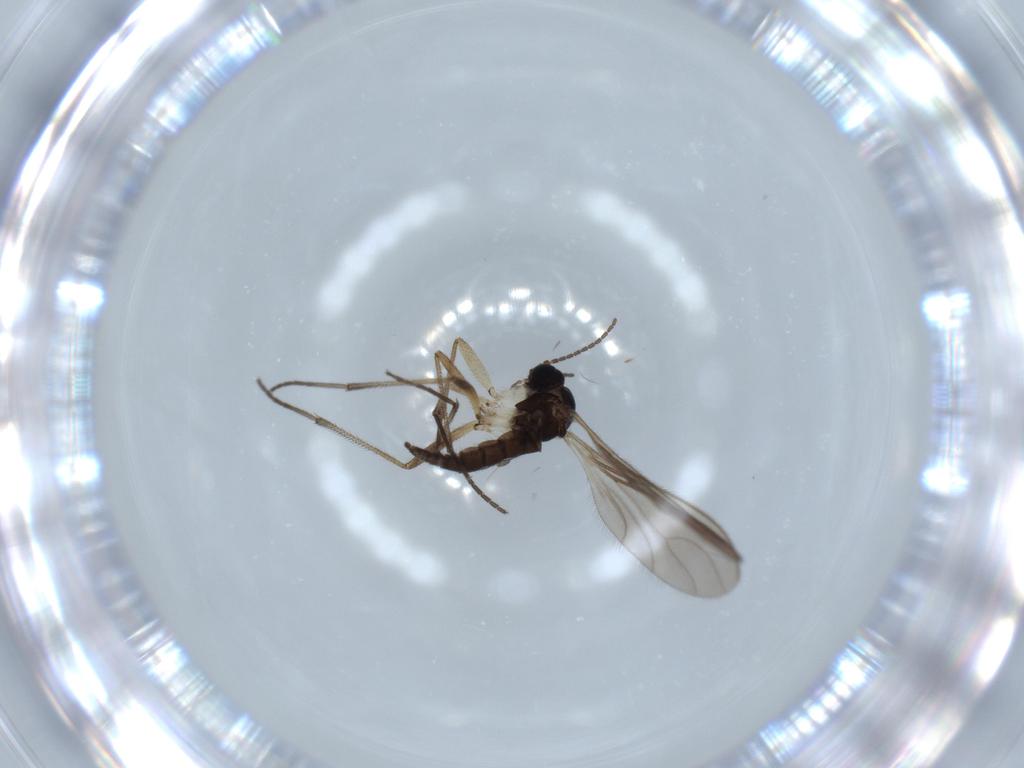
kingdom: Animalia
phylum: Arthropoda
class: Insecta
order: Diptera
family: Sciaridae
